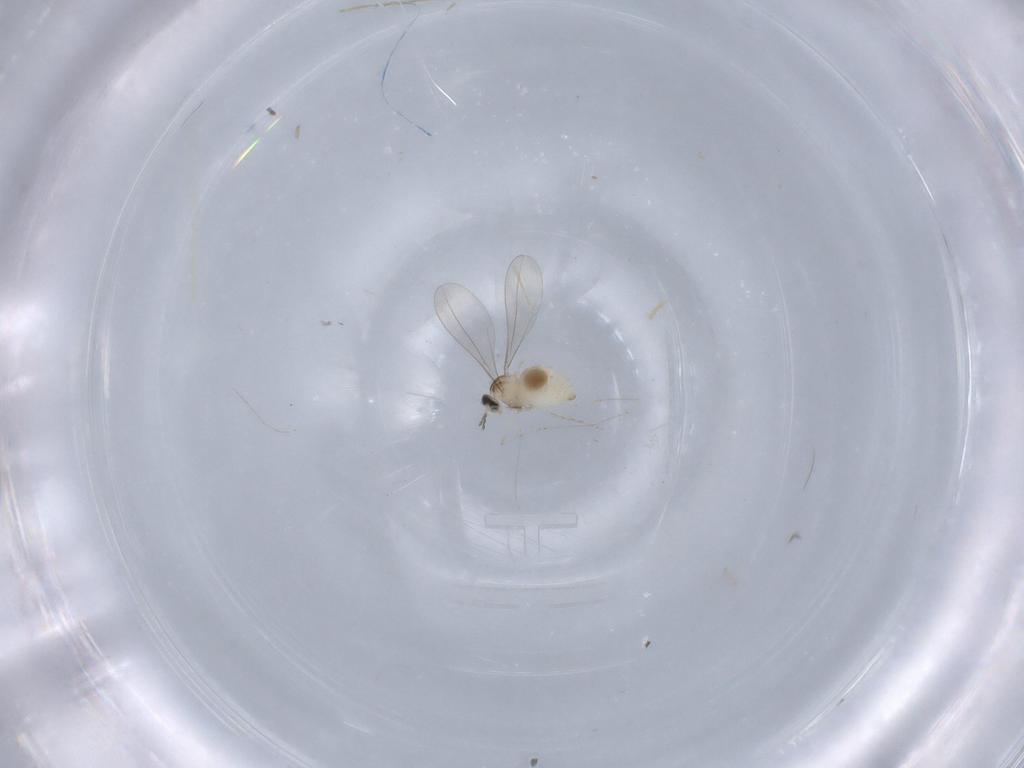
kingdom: Animalia
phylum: Arthropoda
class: Insecta
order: Diptera
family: Cecidomyiidae
